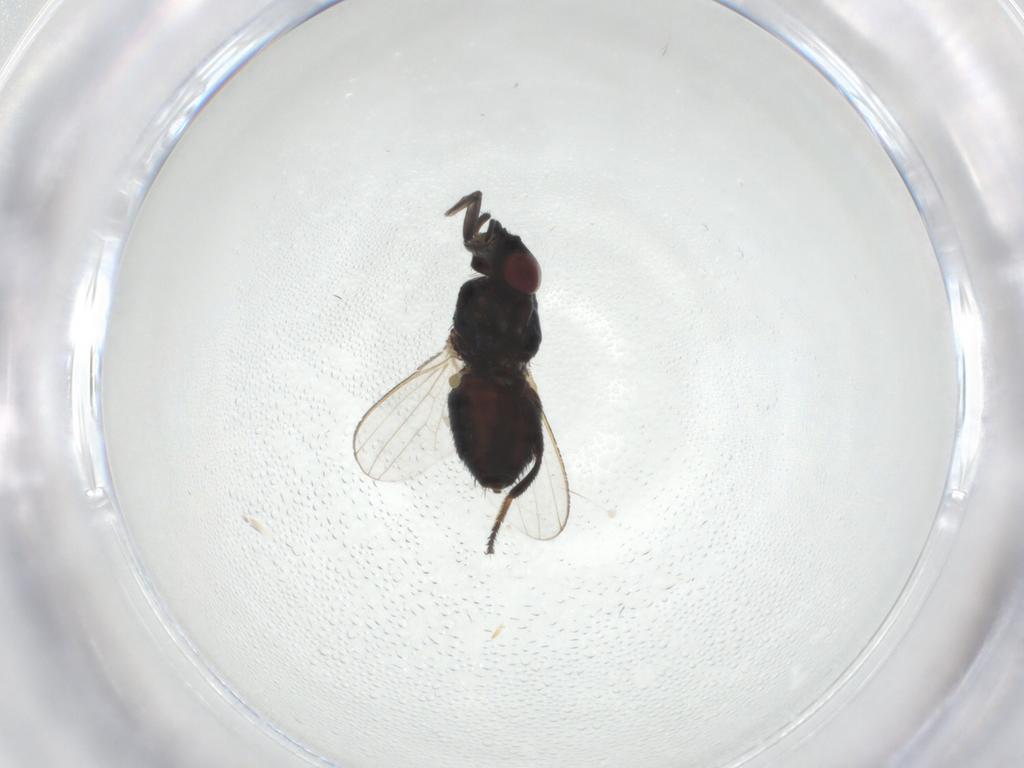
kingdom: Animalia
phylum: Arthropoda
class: Insecta
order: Diptera
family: Milichiidae
